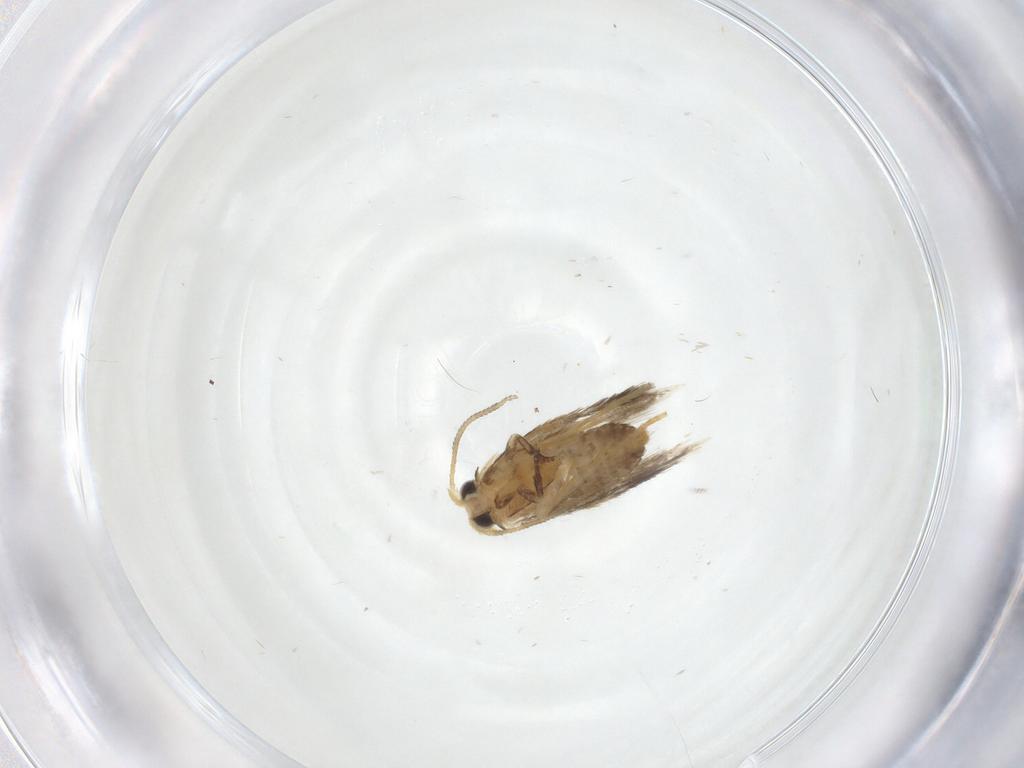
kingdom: Animalia
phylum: Arthropoda
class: Insecta
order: Lepidoptera
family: Nepticulidae
